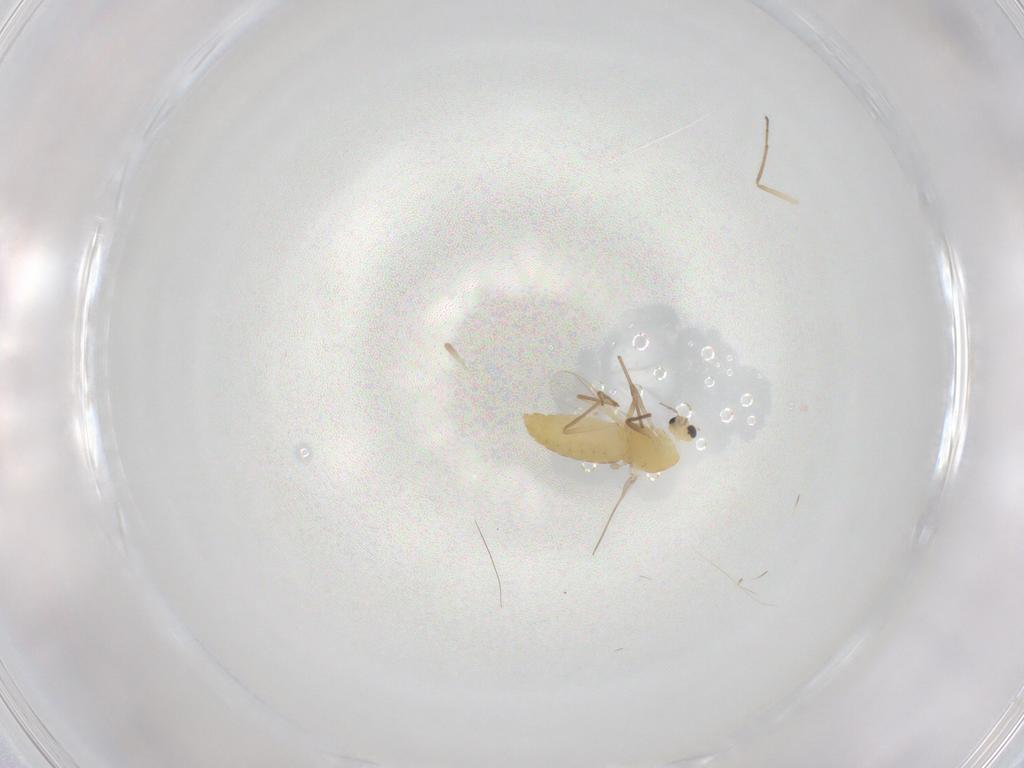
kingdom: Animalia
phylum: Arthropoda
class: Insecta
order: Diptera
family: Chironomidae
